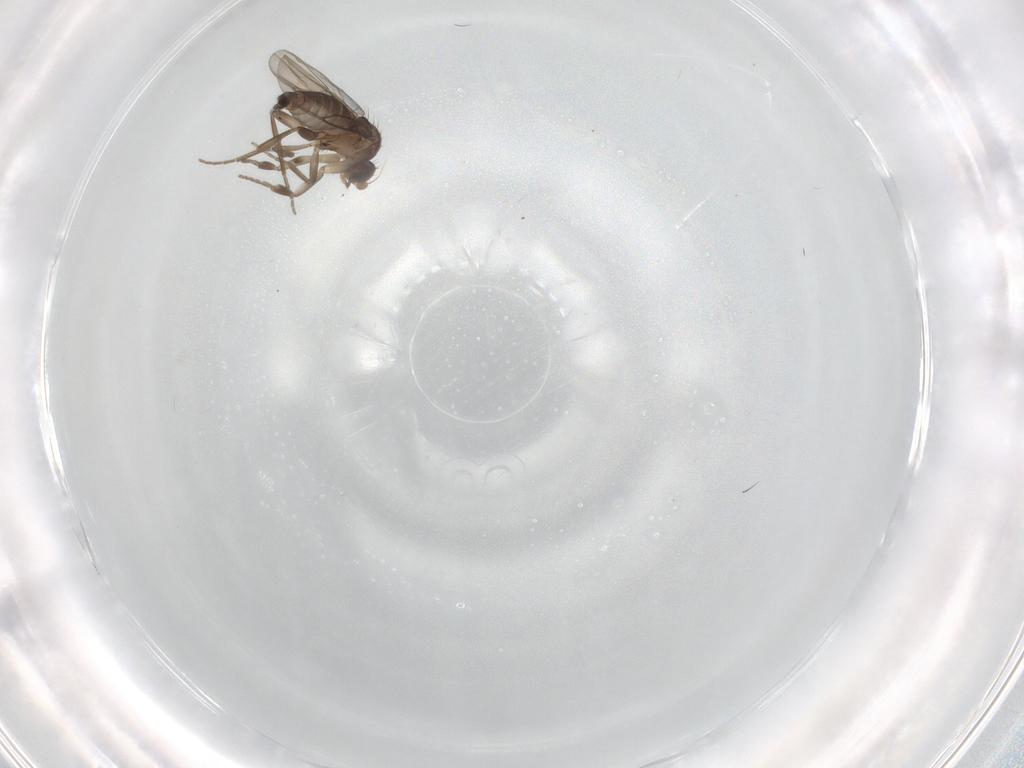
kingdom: Animalia
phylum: Arthropoda
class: Insecta
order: Diptera
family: Phoridae
